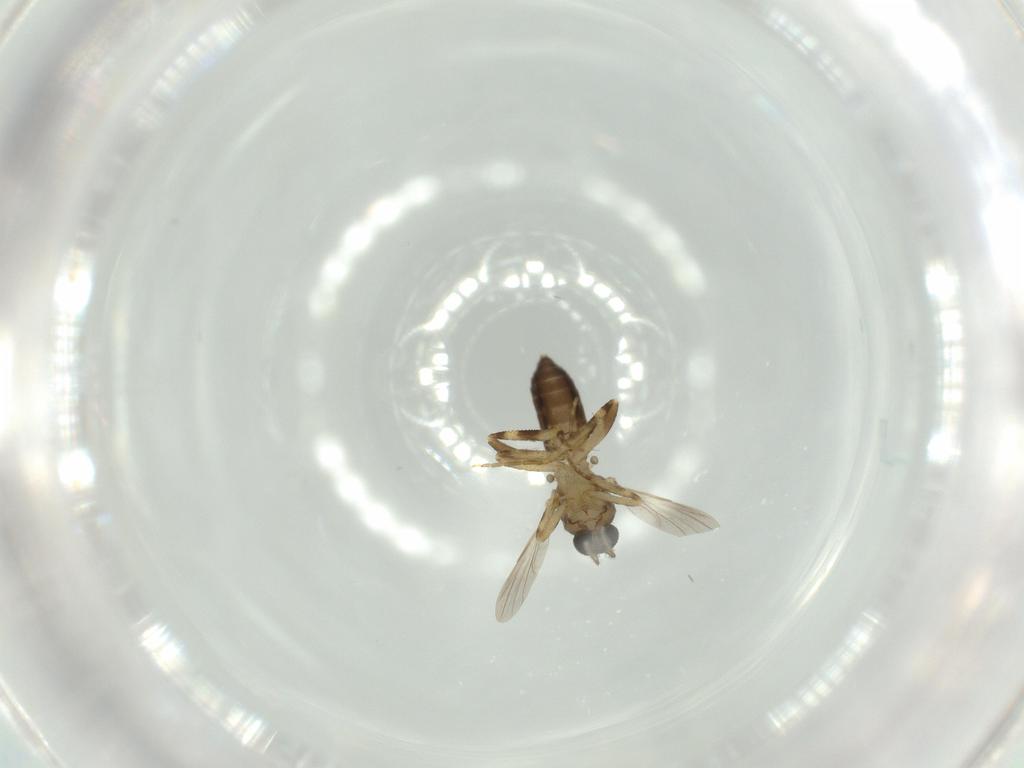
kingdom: Animalia
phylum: Arthropoda
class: Insecta
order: Diptera
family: Ceratopogonidae
